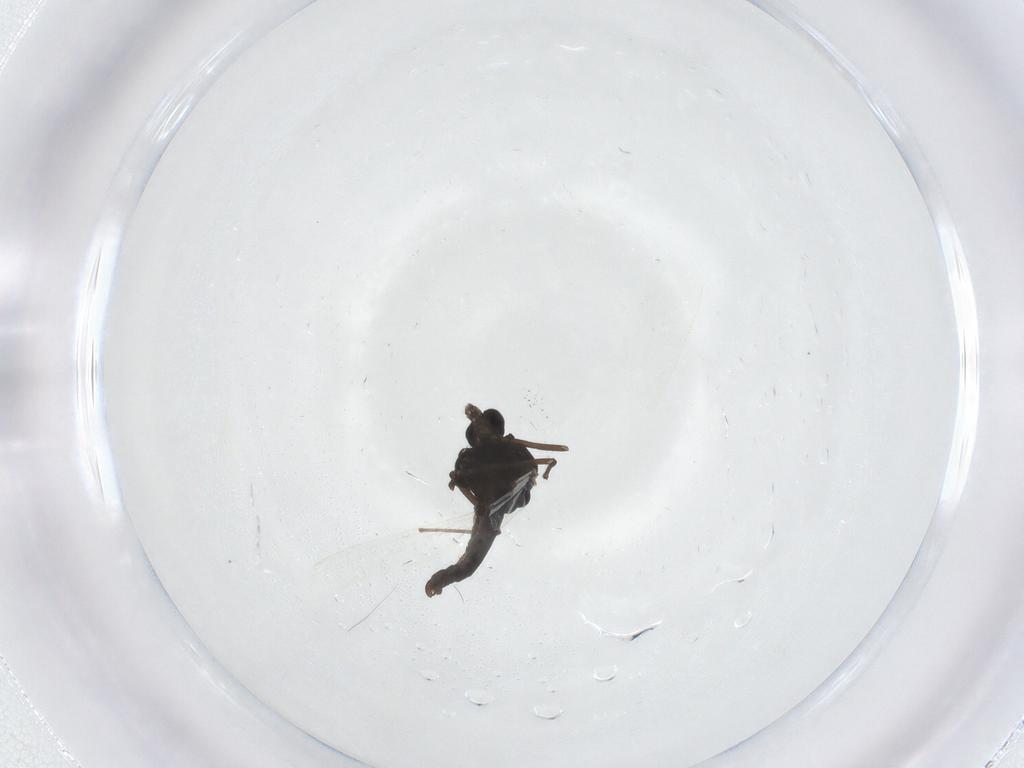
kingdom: Animalia
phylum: Arthropoda
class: Insecta
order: Diptera
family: Chironomidae
